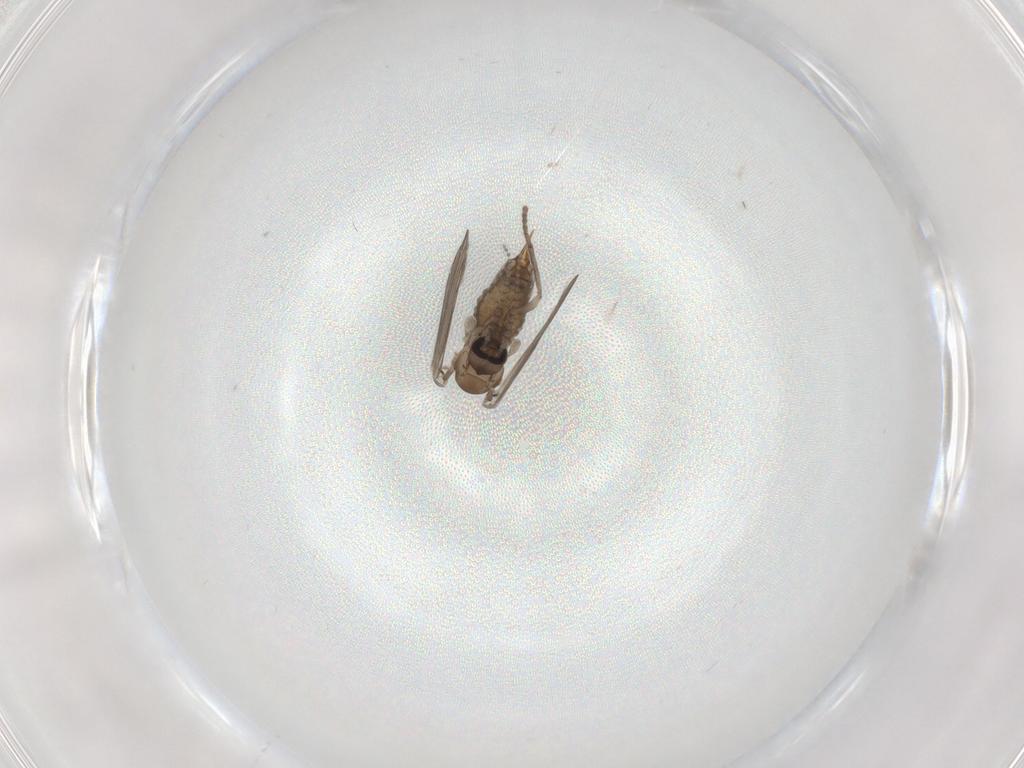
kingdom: Animalia
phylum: Arthropoda
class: Insecta
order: Diptera
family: Psychodidae
